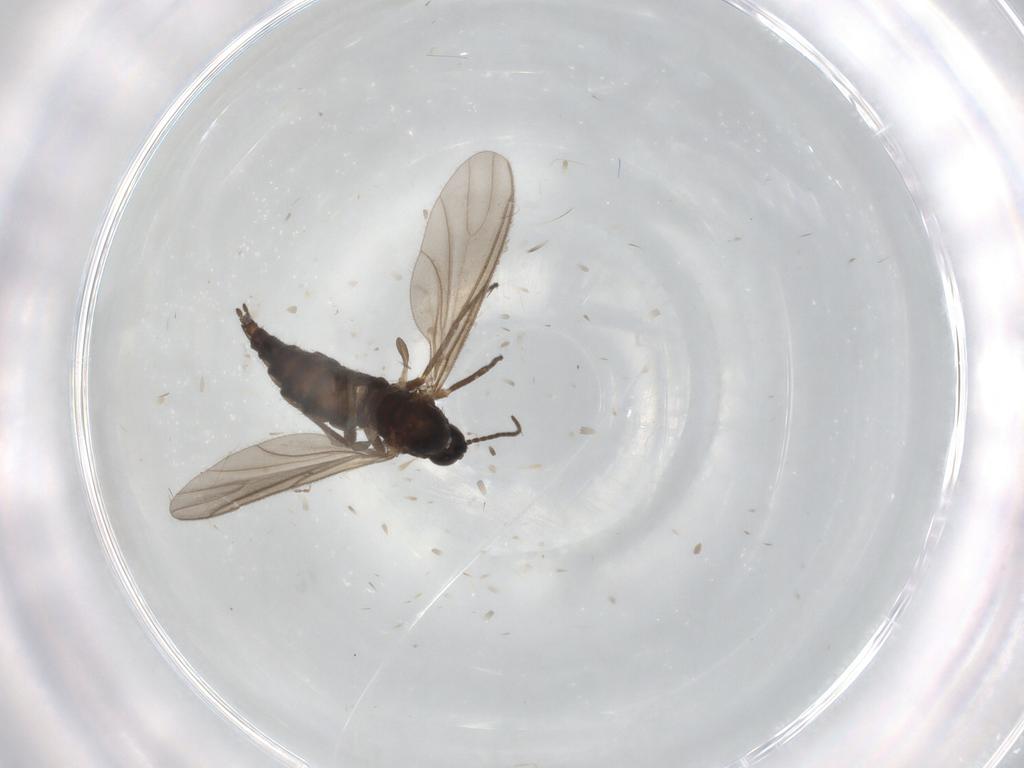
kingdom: Animalia
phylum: Arthropoda
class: Insecta
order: Diptera
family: Sciaridae
